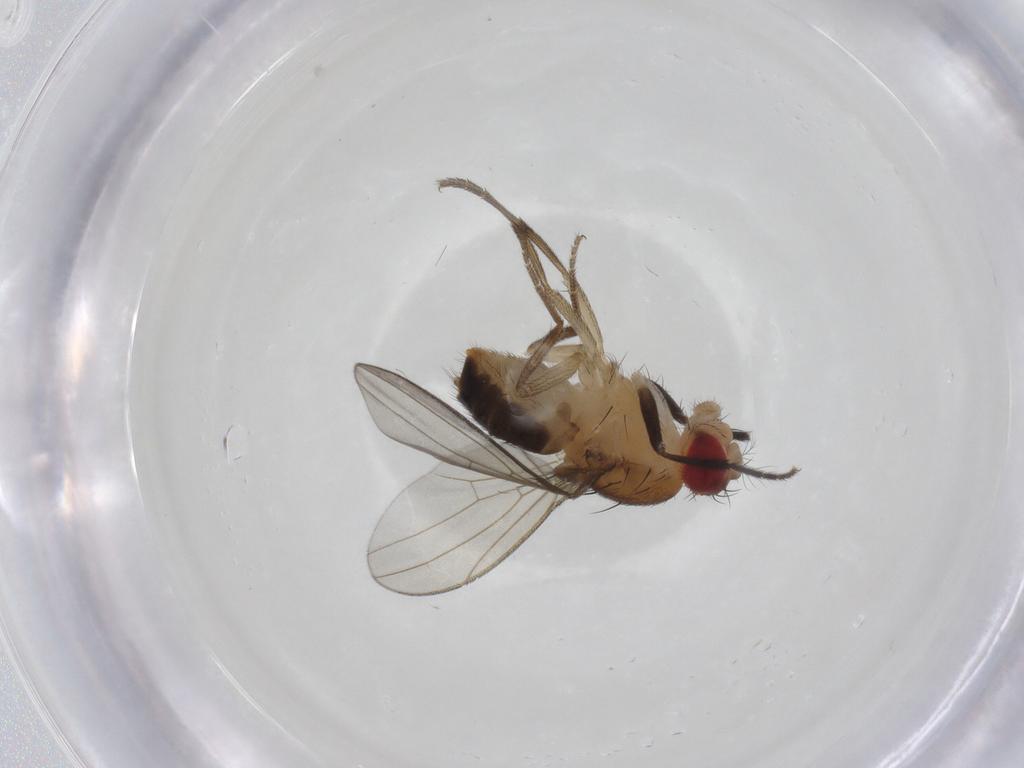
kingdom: Animalia
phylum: Arthropoda
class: Insecta
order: Diptera
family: Drosophilidae
